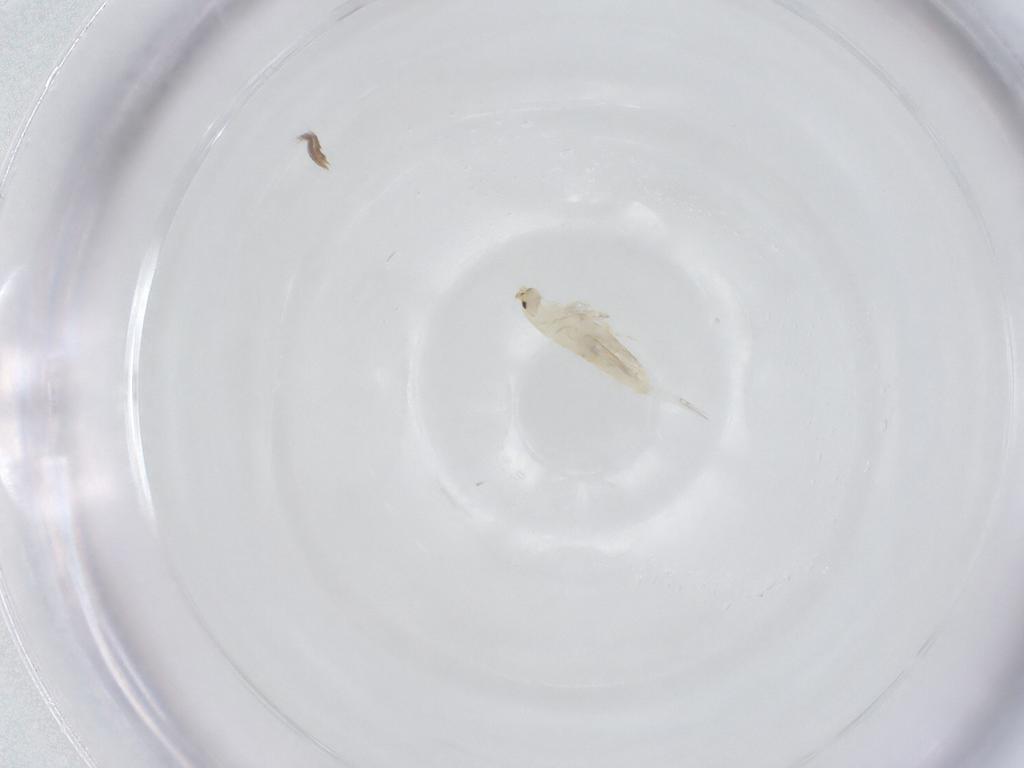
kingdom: Animalia
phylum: Arthropoda
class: Collembola
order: Entomobryomorpha
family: Entomobryidae
